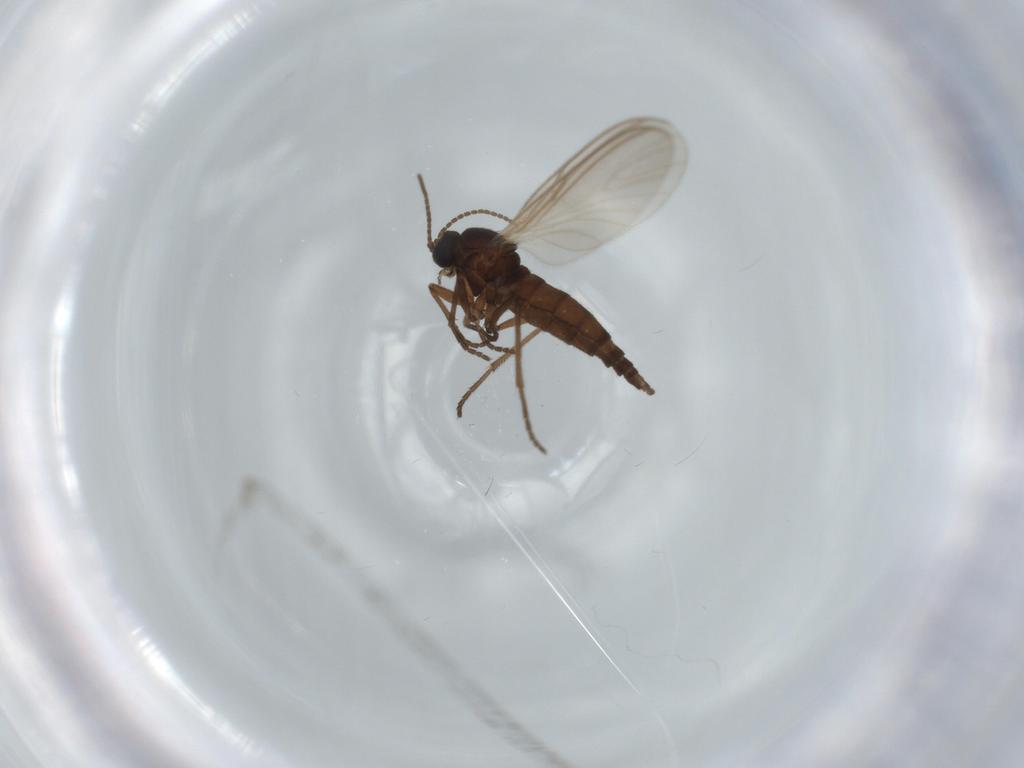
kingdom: Animalia
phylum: Arthropoda
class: Insecta
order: Diptera
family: Sciaridae
